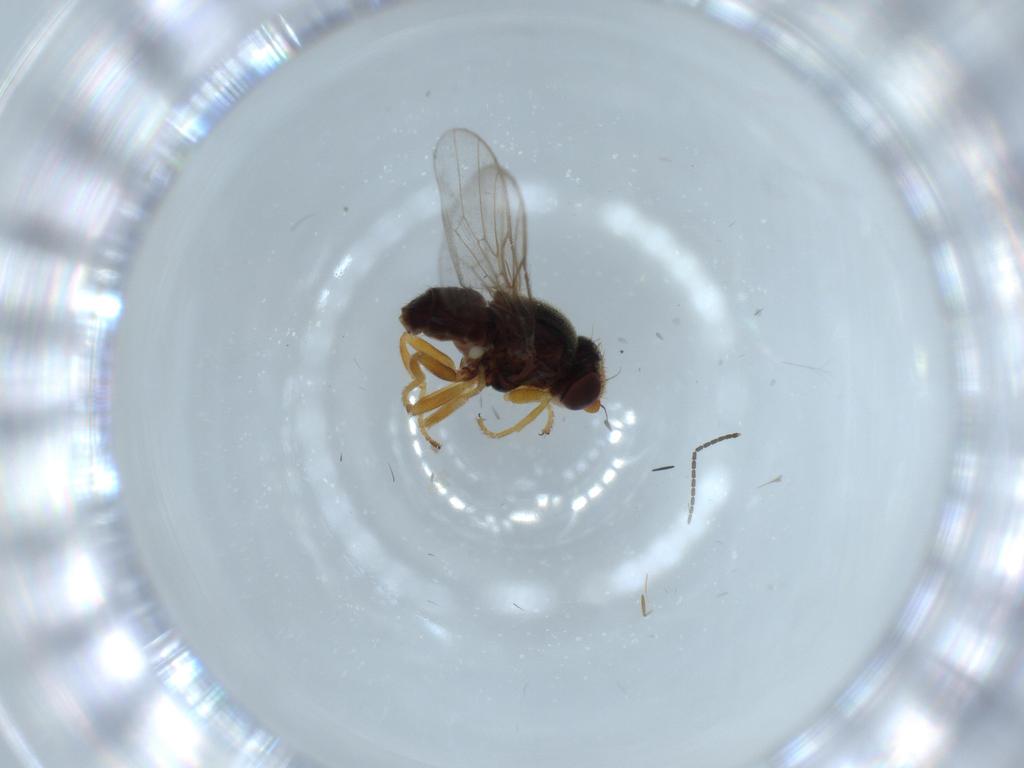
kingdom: Animalia
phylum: Arthropoda
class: Insecta
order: Diptera
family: Chloropidae
